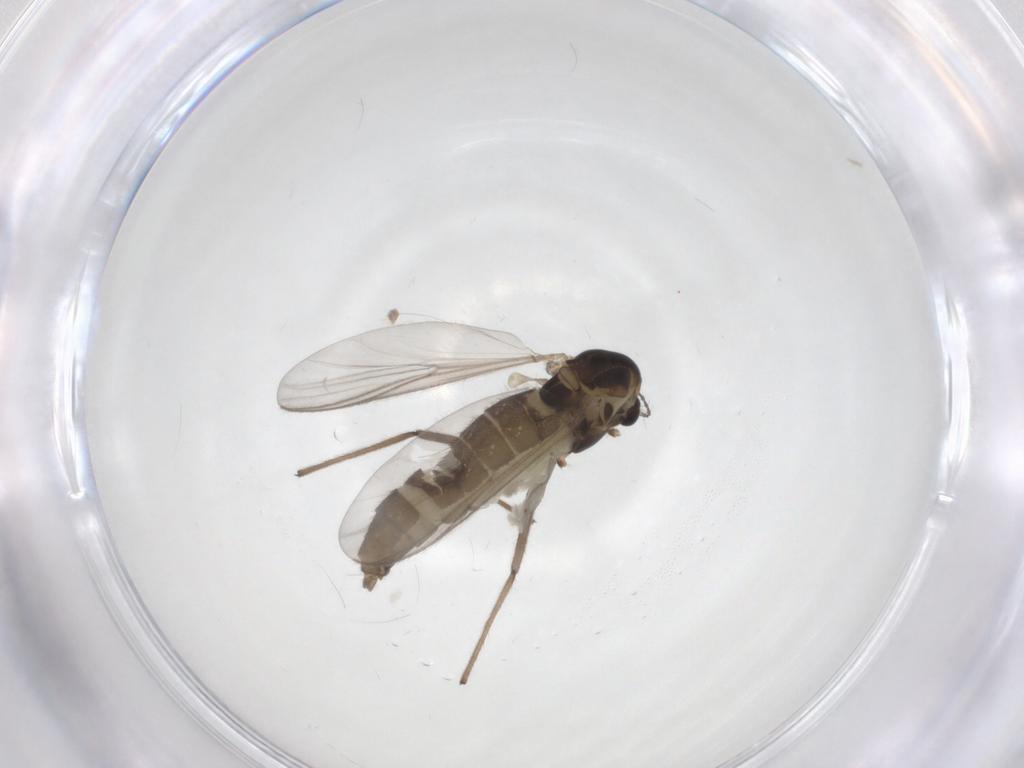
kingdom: Animalia
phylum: Arthropoda
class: Insecta
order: Diptera
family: Chironomidae
